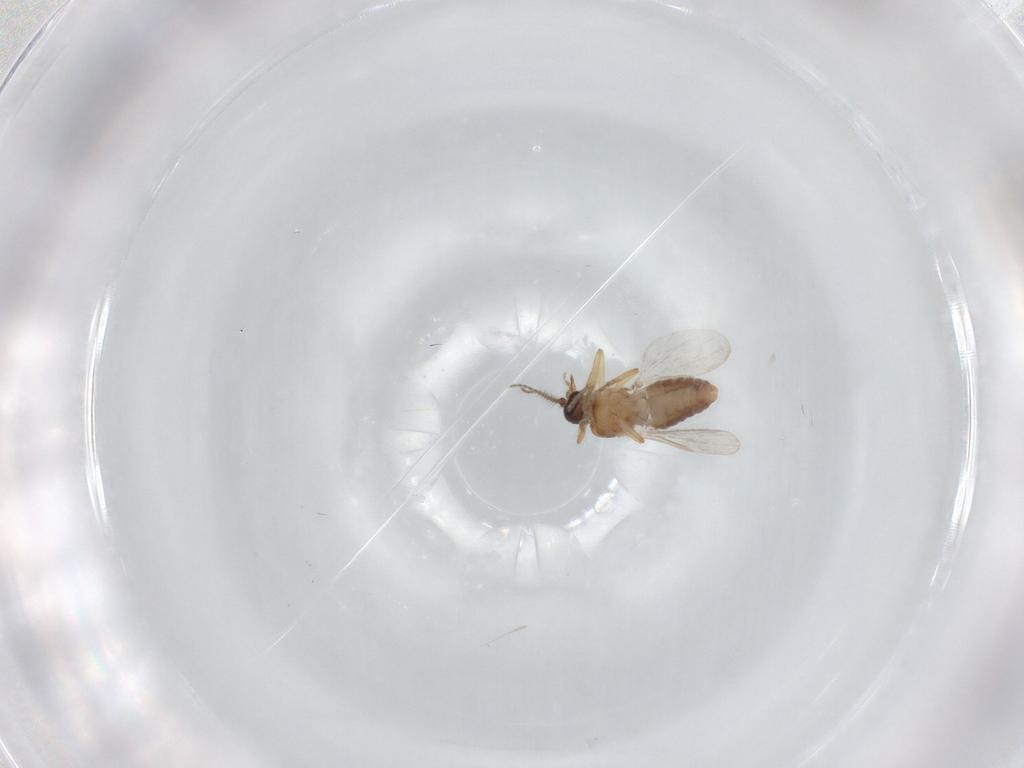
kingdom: Animalia
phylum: Arthropoda
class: Insecta
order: Diptera
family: Ceratopogonidae
